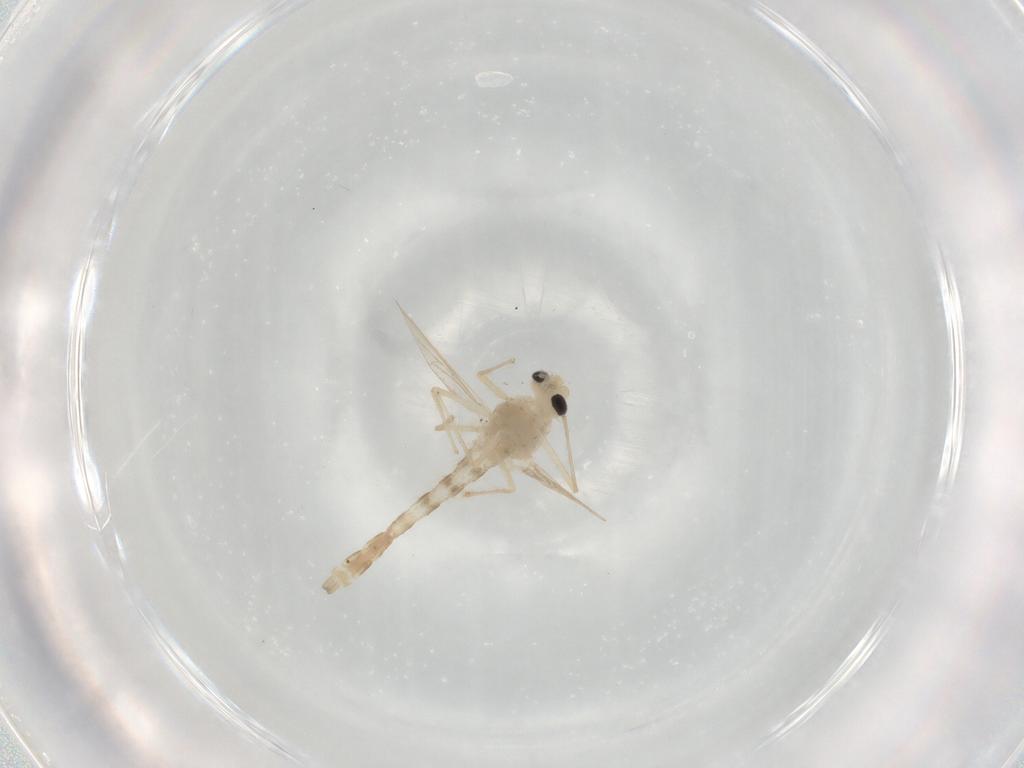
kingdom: Animalia
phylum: Arthropoda
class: Insecta
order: Diptera
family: Chironomidae
